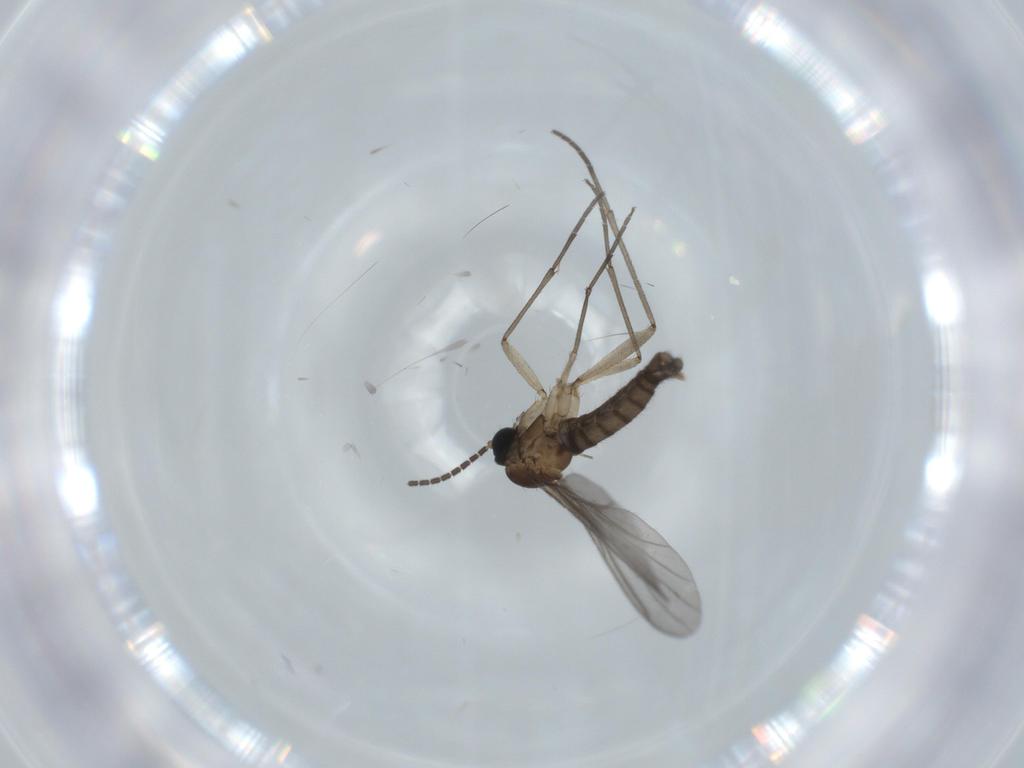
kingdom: Animalia
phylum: Arthropoda
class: Insecta
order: Diptera
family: Sciaridae
